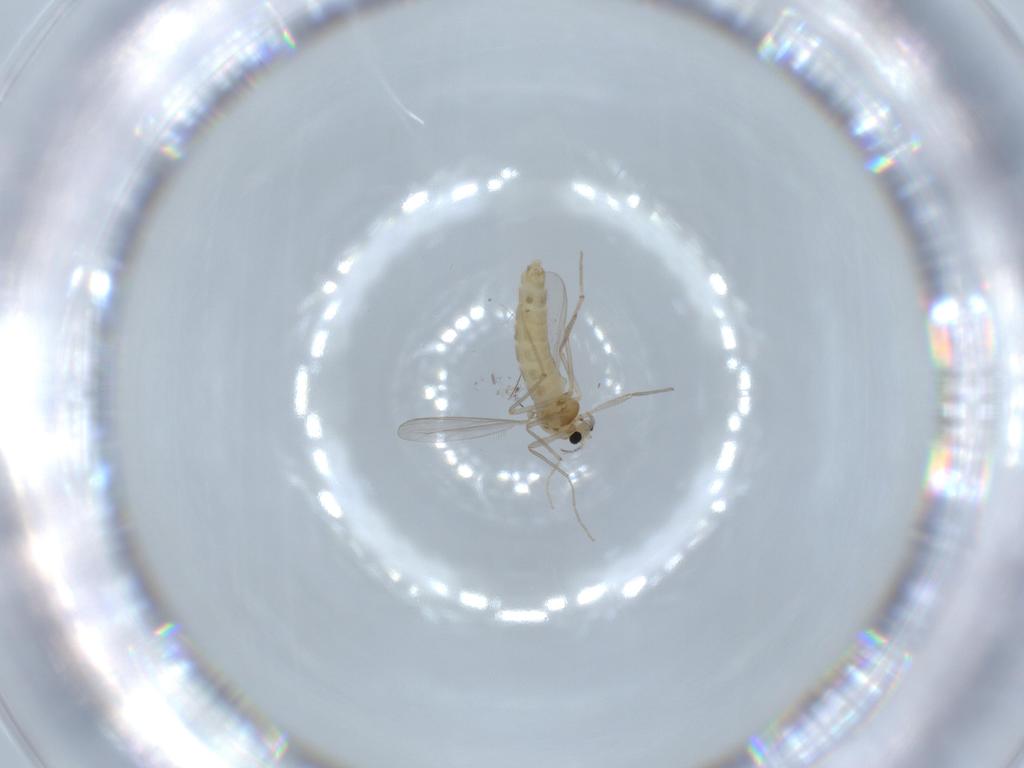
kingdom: Animalia
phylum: Arthropoda
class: Insecta
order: Diptera
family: Chironomidae
